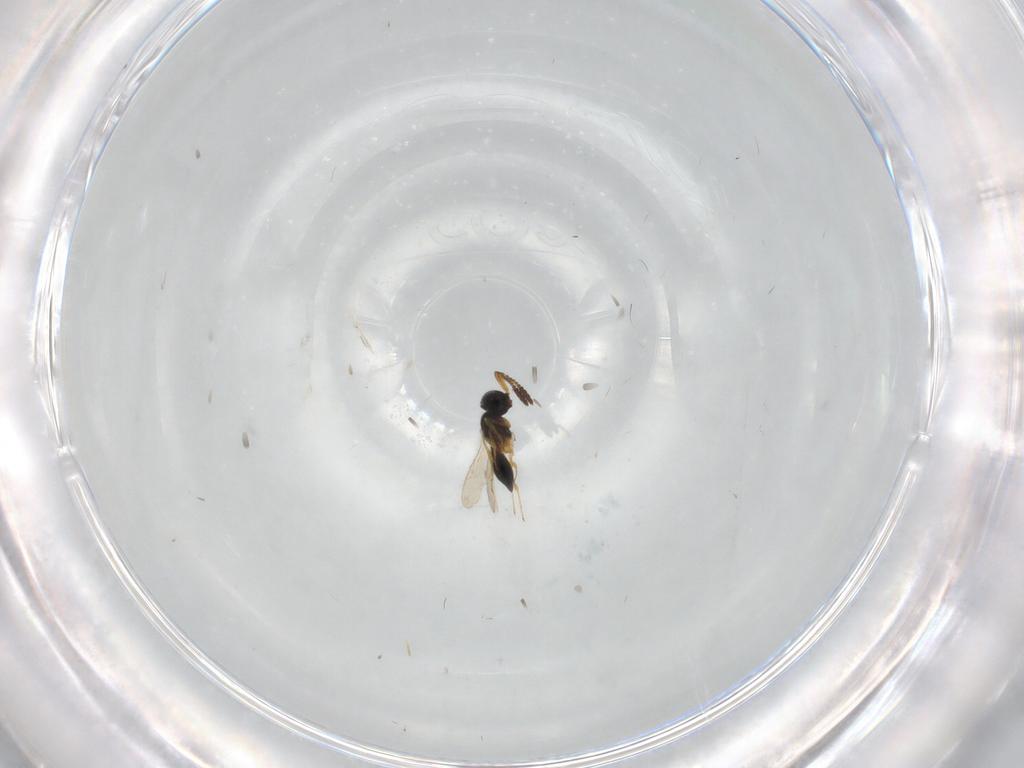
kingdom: Animalia
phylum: Arthropoda
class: Insecta
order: Hymenoptera
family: Scelionidae
